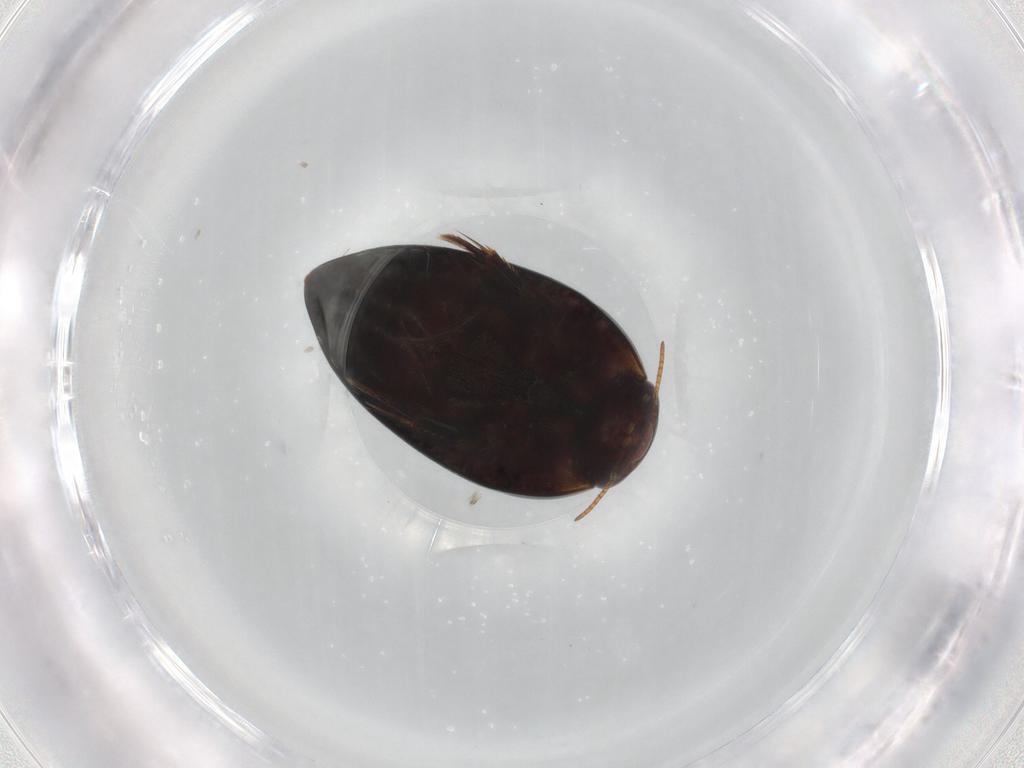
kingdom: Animalia
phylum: Arthropoda
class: Insecta
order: Coleoptera
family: Noteridae
